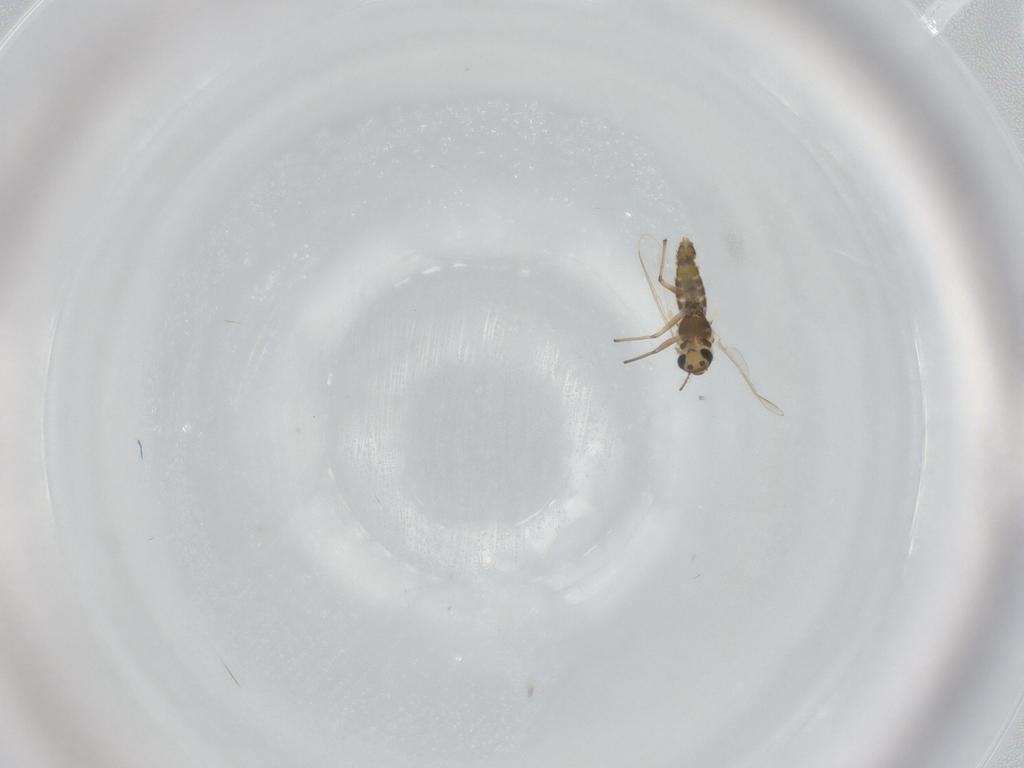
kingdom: Animalia
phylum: Arthropoda
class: Insecta
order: Diptera
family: Chironomidae
